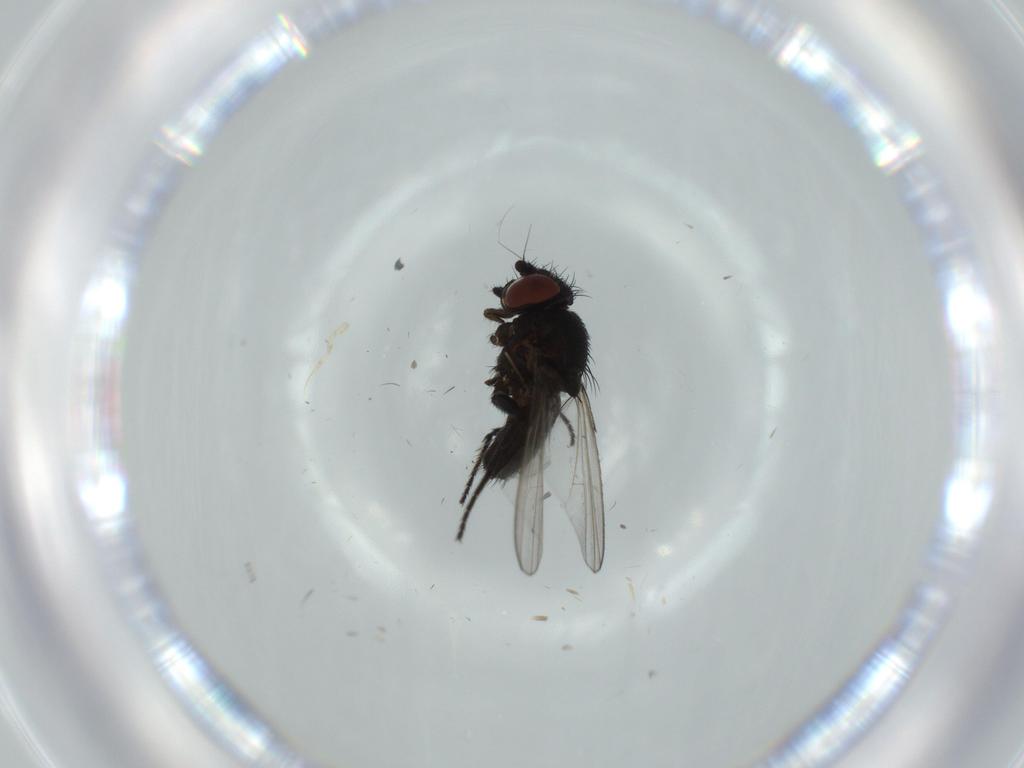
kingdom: Animalia
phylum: Arthropoda
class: Insecta
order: Diptera
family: Milichiidae
